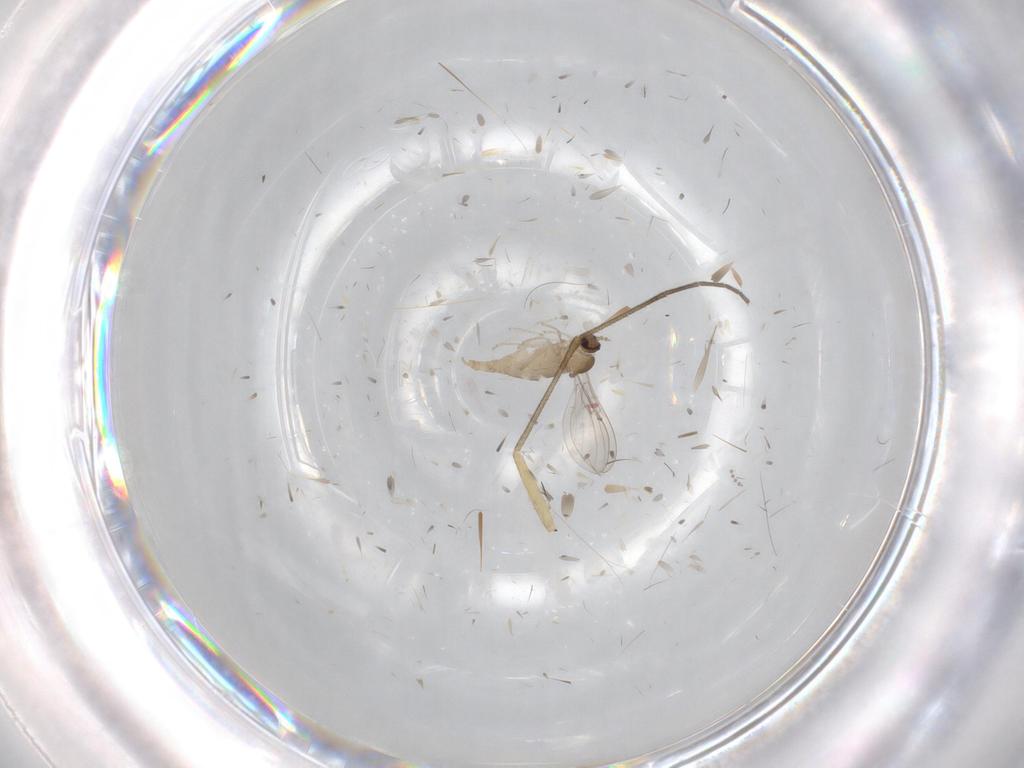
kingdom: Animalia
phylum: Arthropoda
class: Insecta
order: Diptera
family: Cecidomyiidae
